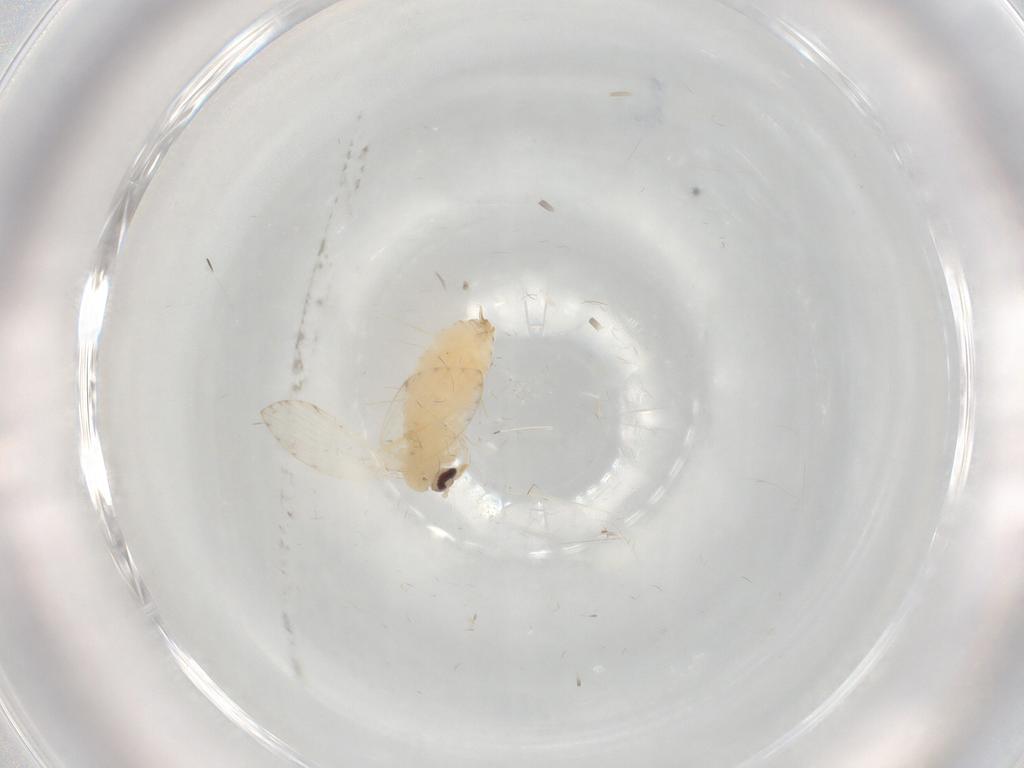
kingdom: Animalia
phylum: Arthropoda
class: Insecta
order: Diptera
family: Psychodidae
